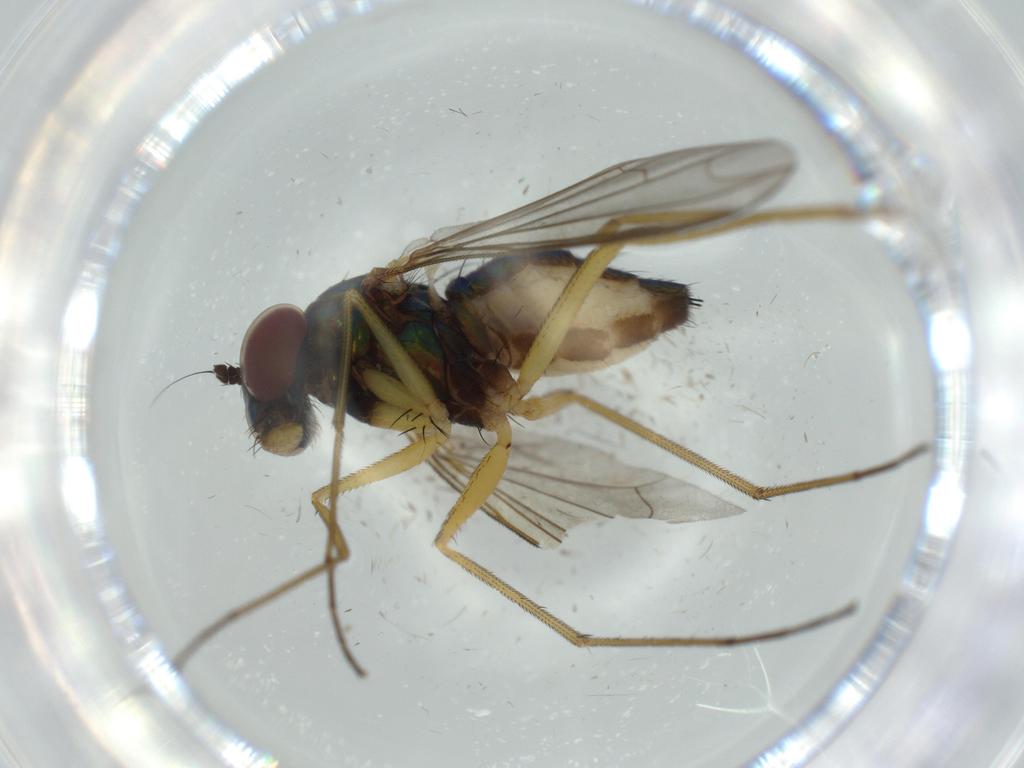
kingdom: Animalia
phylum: Arthropoda
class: Insecta
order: Diptera
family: Dolichopodidae
